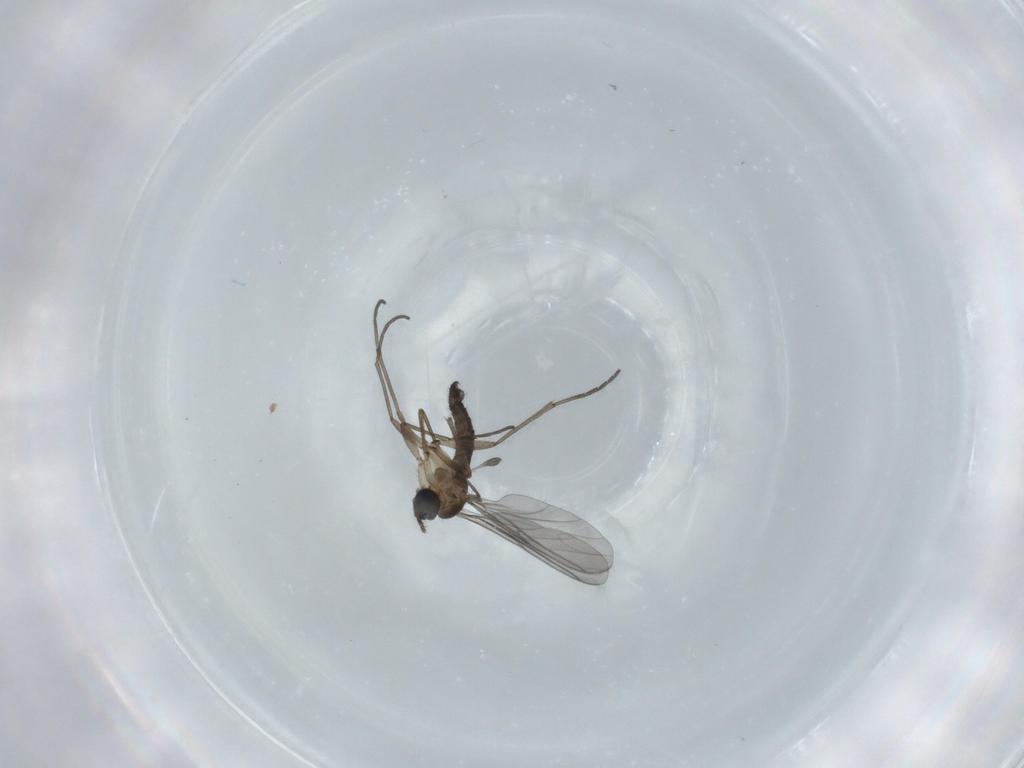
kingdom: Animalia
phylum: Arthropoda
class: Insecta
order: Diptera
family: Sciaridae
